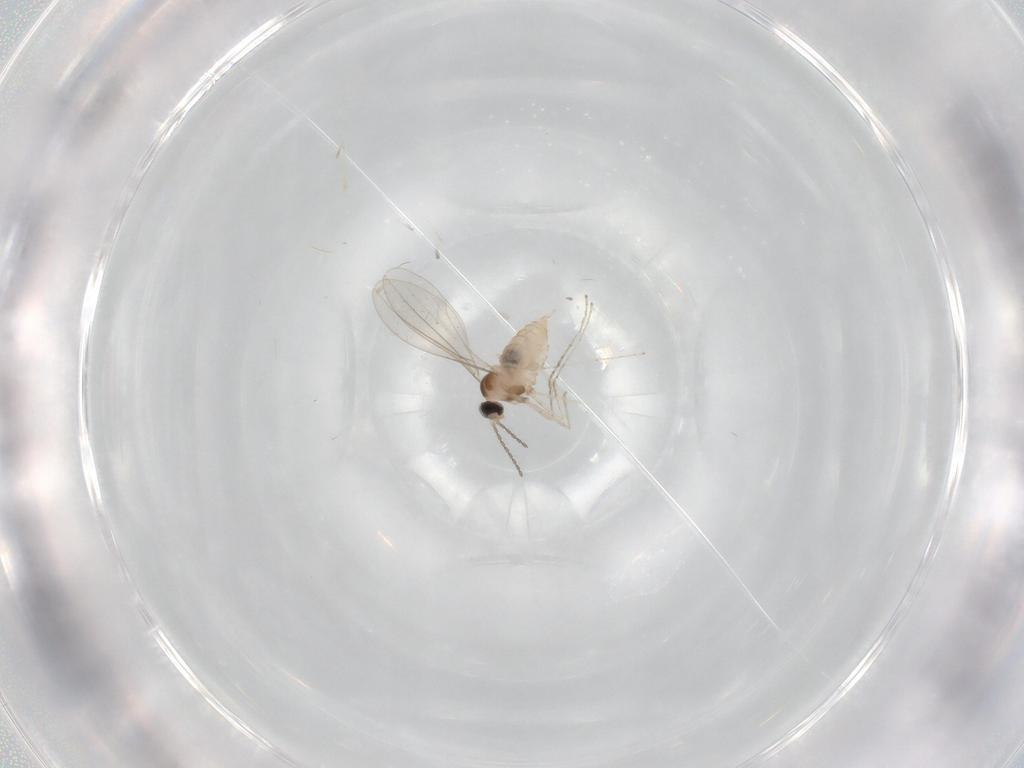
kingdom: Animalia
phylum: Arthropoda
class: Insecta
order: Diptera
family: Cecidomyiidae
